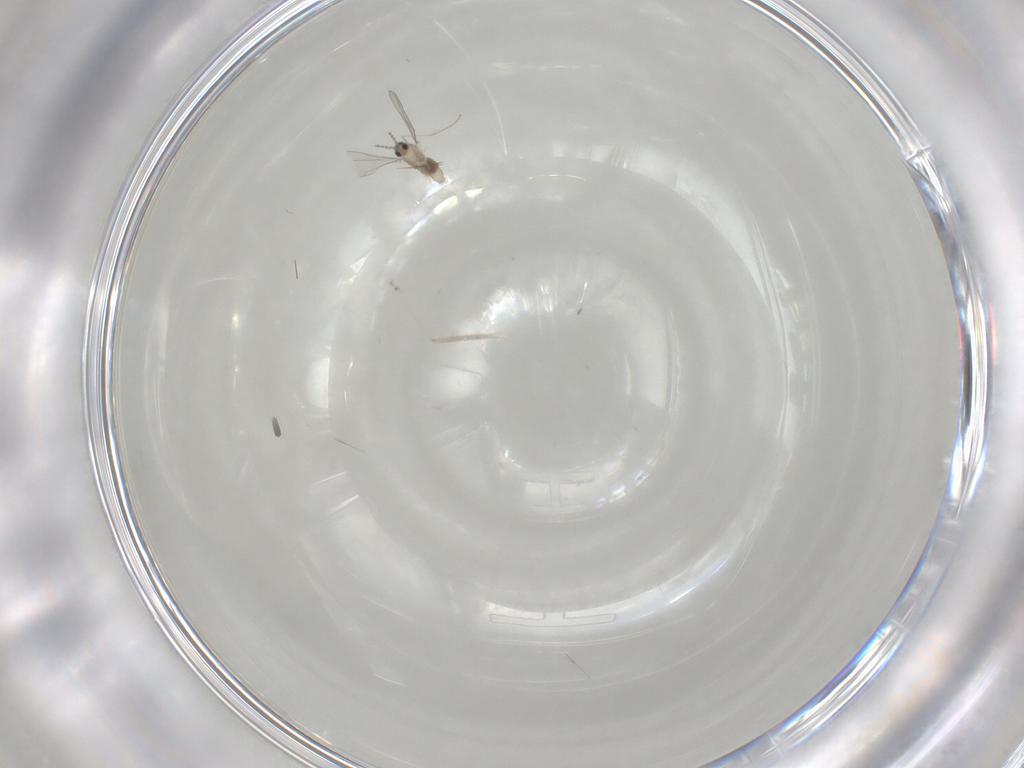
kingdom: Animalia
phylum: Arthropoda
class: Insecta
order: Diptera
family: Cecidomyiidae
